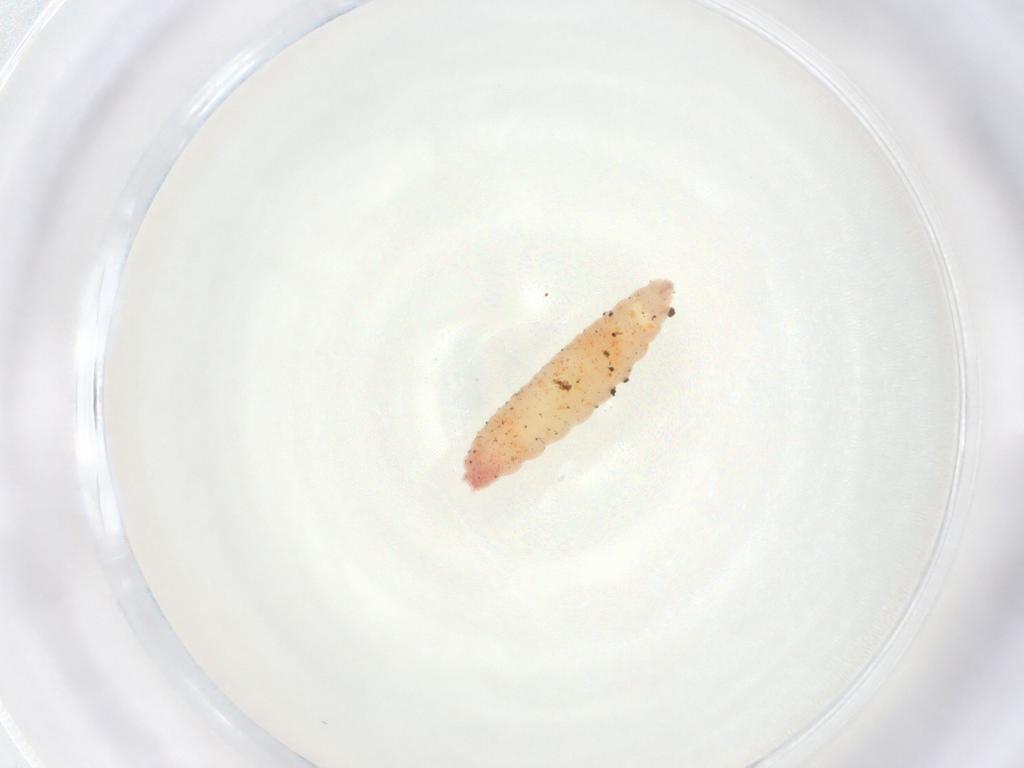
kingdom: Animalia
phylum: Arthropoda
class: Insecta
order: Diptera
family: Cecidomyiidae
